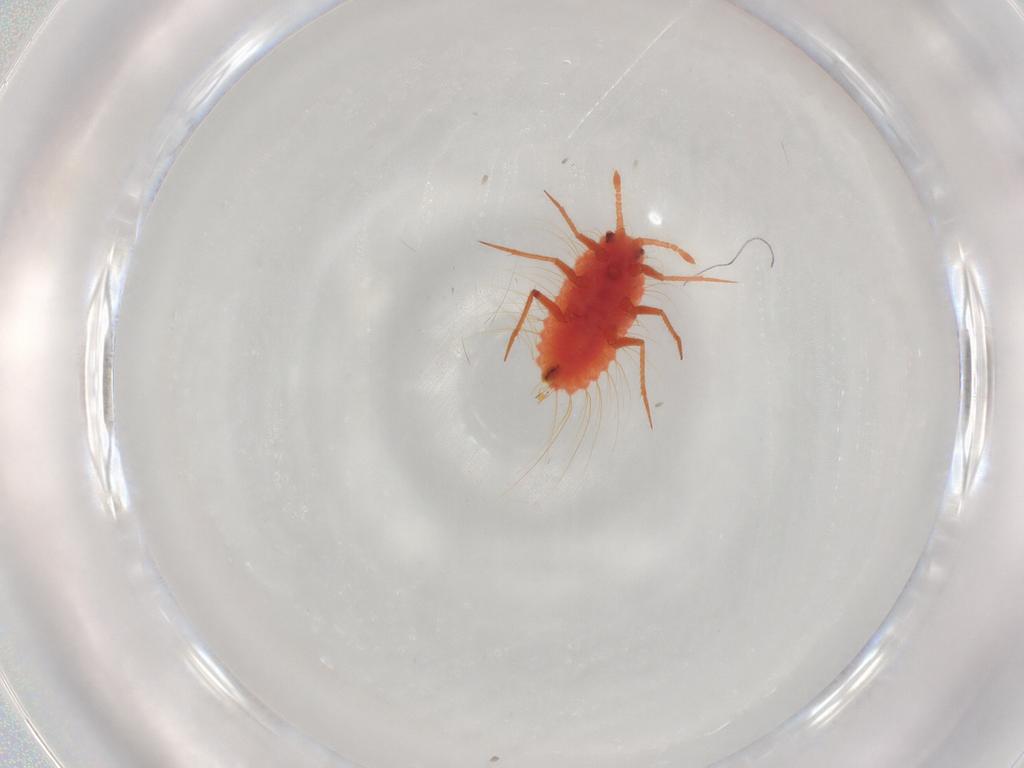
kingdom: Animalia
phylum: Arthropoda
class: Insecta
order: Hemiptera
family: Monophlebidae
